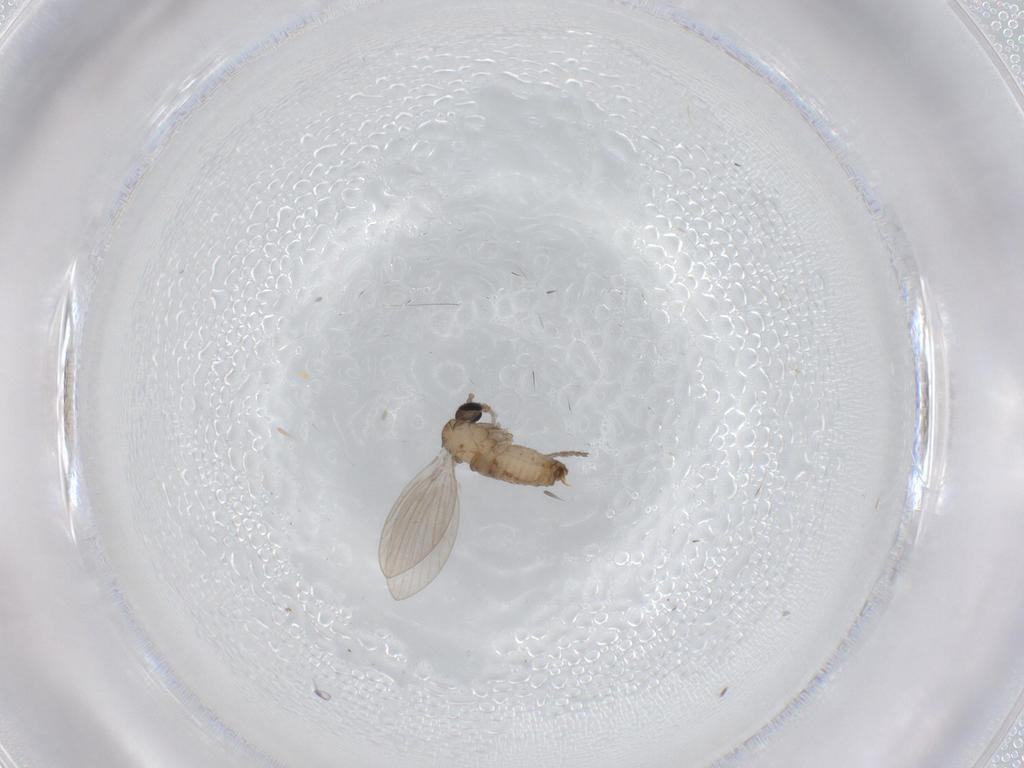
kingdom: Animalia
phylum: Arthropoda
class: Insecta
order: Diptera
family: Psychodidae
